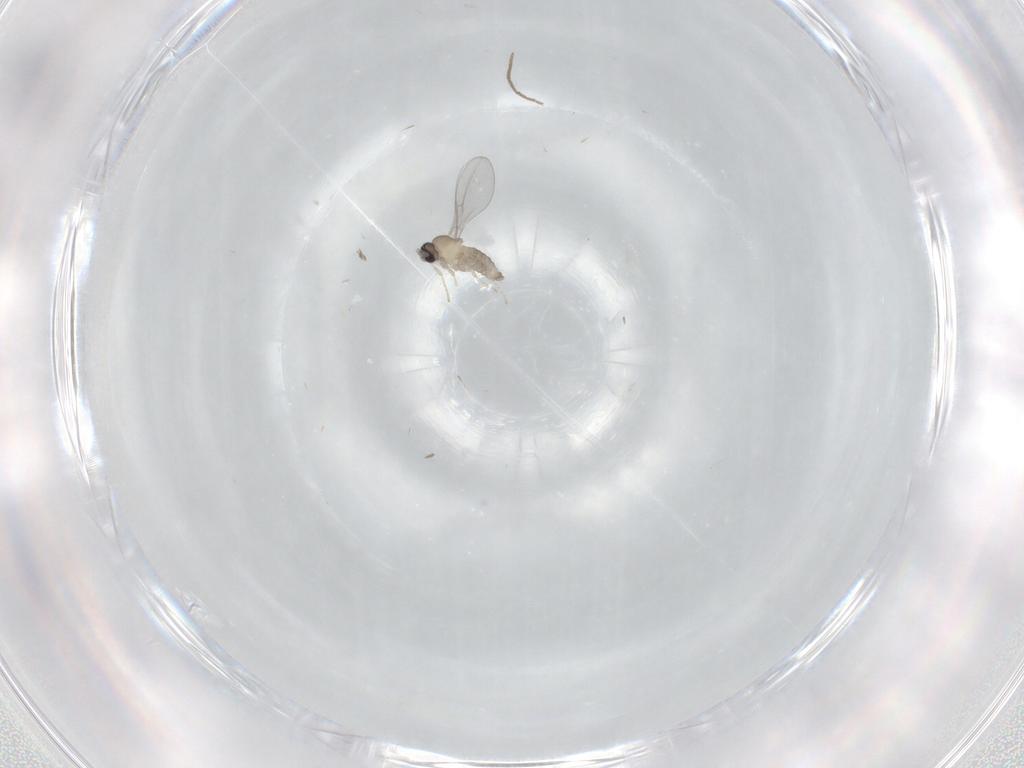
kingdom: Animalia
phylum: Arthropoda
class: Insecta
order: Diptera
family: Cecidomyiidae
